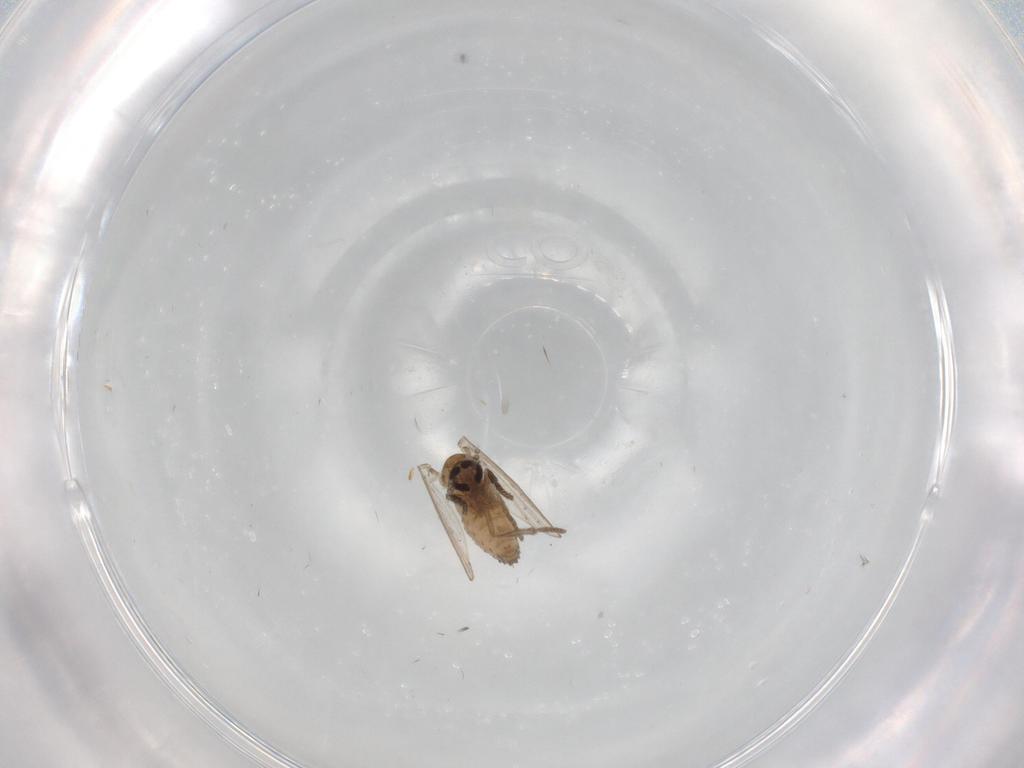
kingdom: Animalia
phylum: Arthropoda
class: Insecta
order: Diptera
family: Psychodidae
